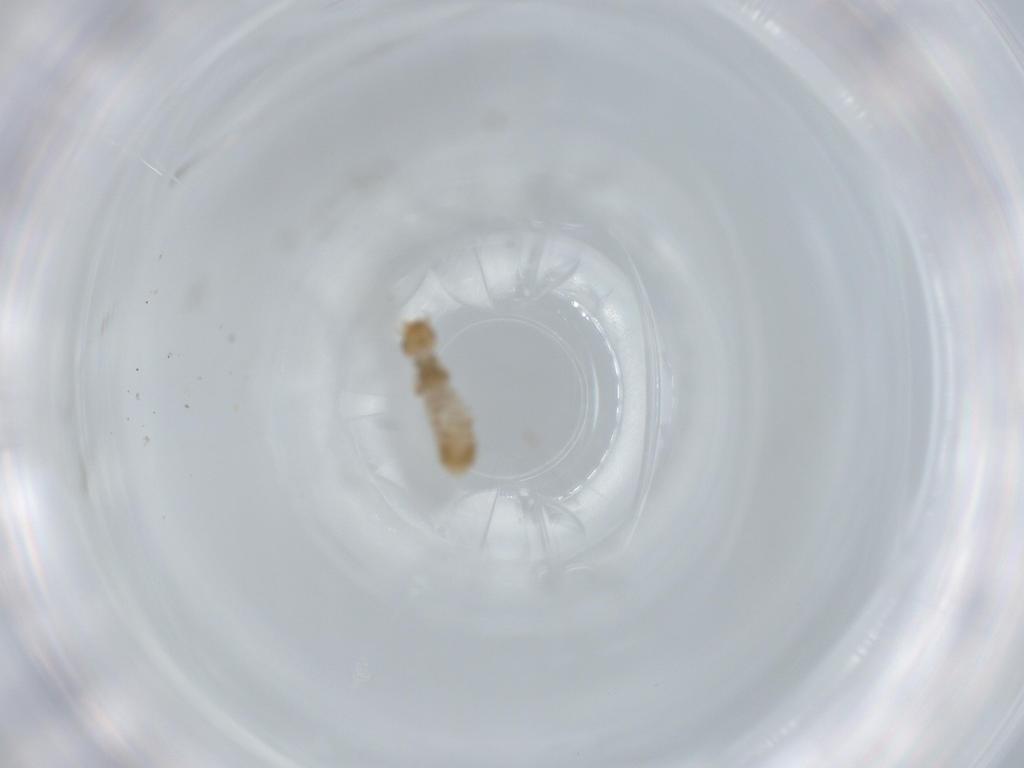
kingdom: Animalia
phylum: Arthropoda
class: Insecta
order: Psocodea
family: Liposcelididae
